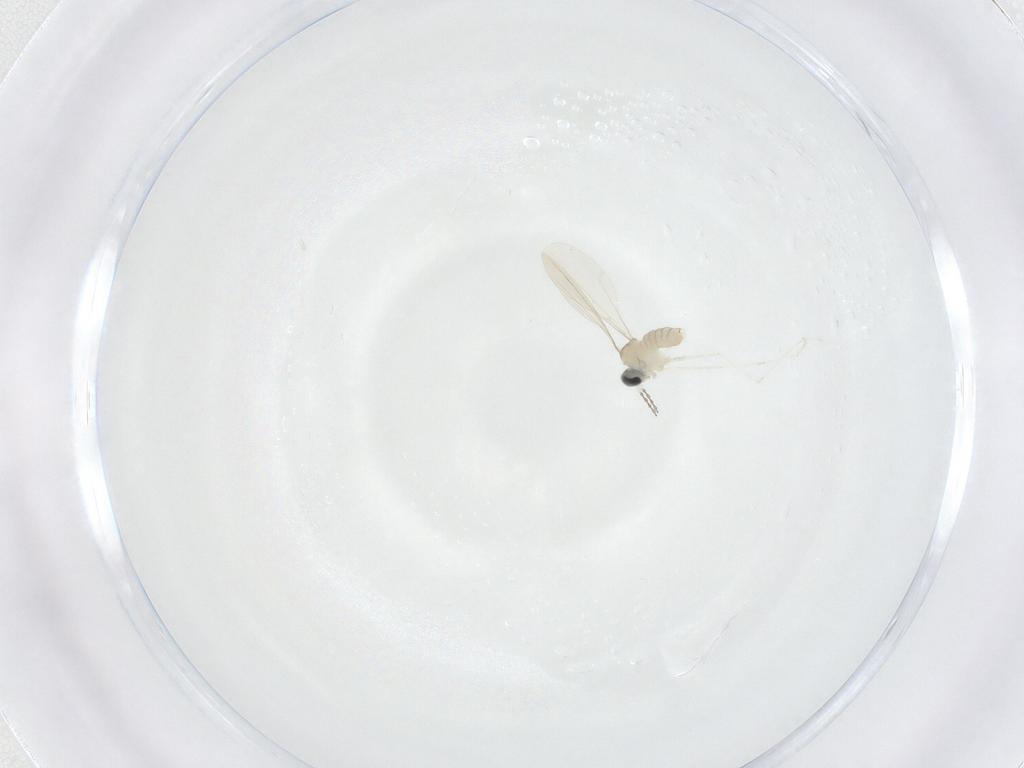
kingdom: Animalia
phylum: Arthropoda
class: Insecta
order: Diptera
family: Cecidomyiidae
